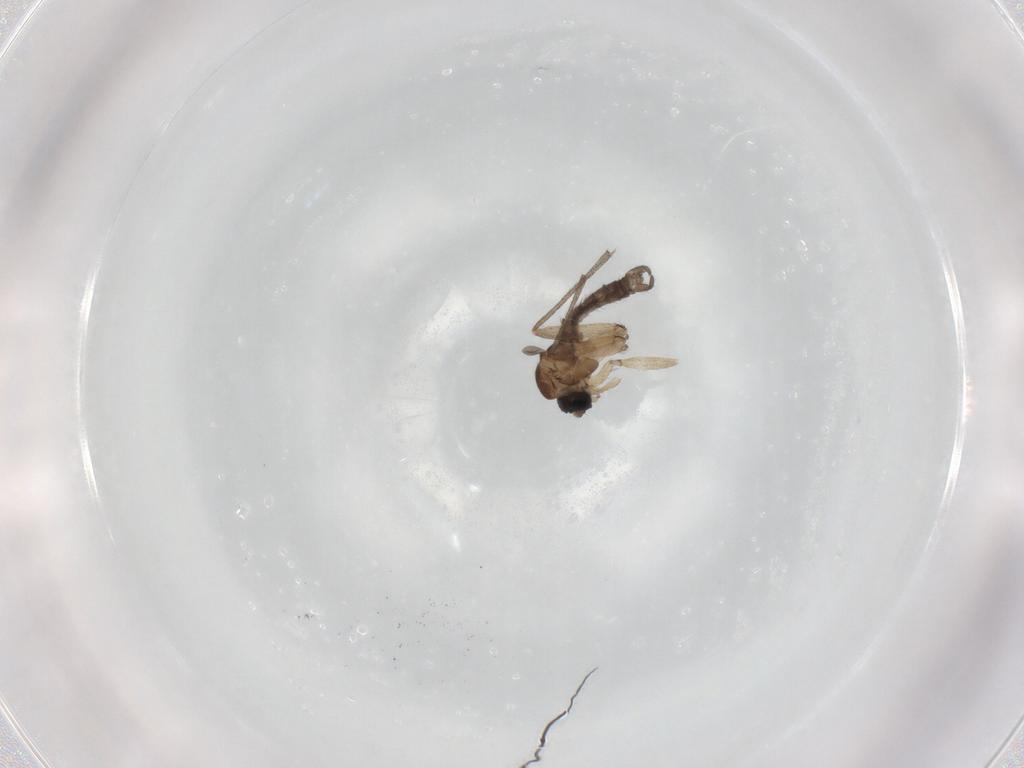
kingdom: Animalia
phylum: Arthropoda
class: Insecta
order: Diptera
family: Sciaridae
